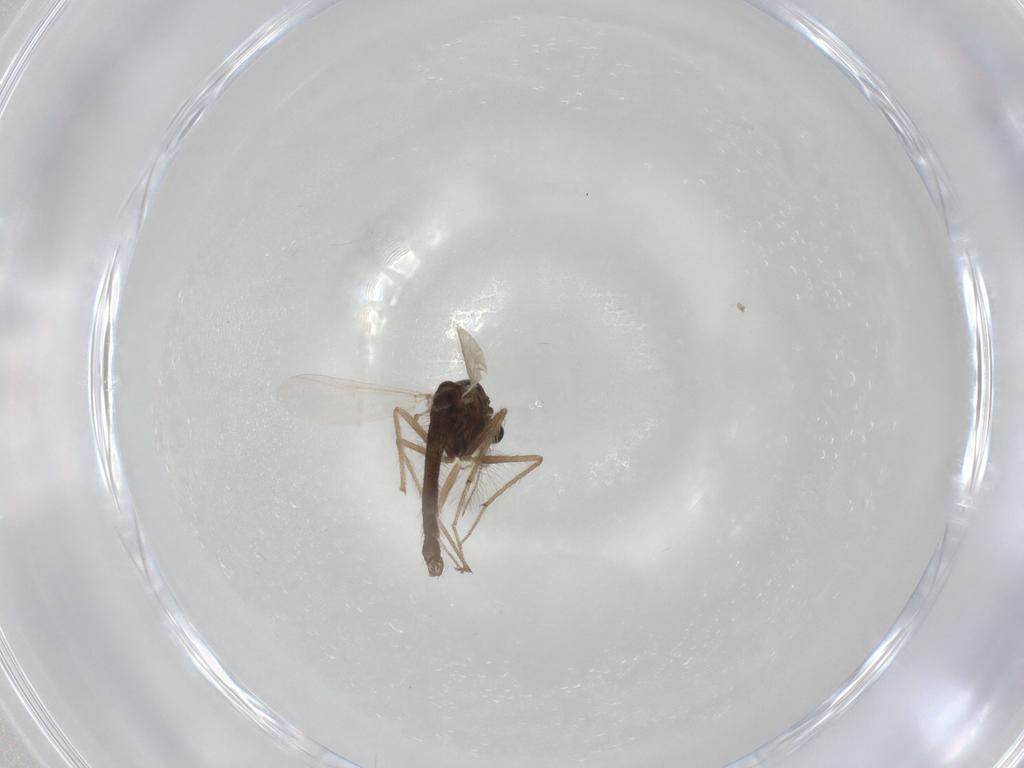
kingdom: Animalia
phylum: Arthropoda
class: Insecta
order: Diptera
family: Chironomidae
